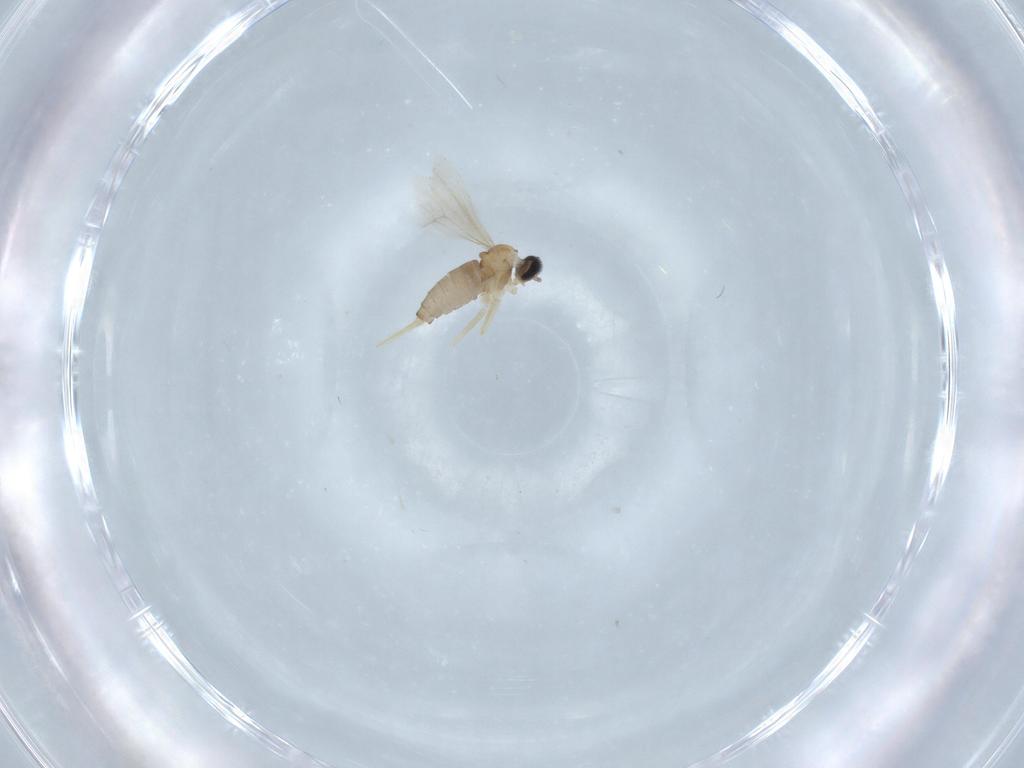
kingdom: Animalia
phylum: Arthropoda
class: Insecta
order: Diptera
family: Cecidomyiidae
